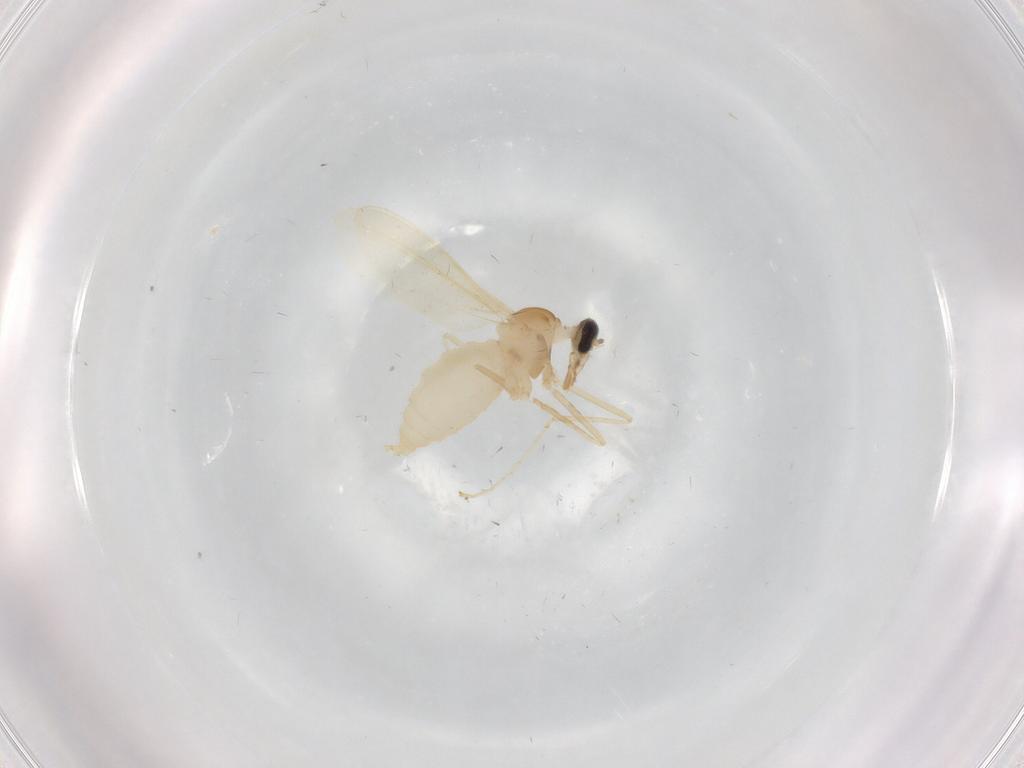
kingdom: Animalia
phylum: Arthropoda
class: Insecta
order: Diptera
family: Cecidomyiidae
